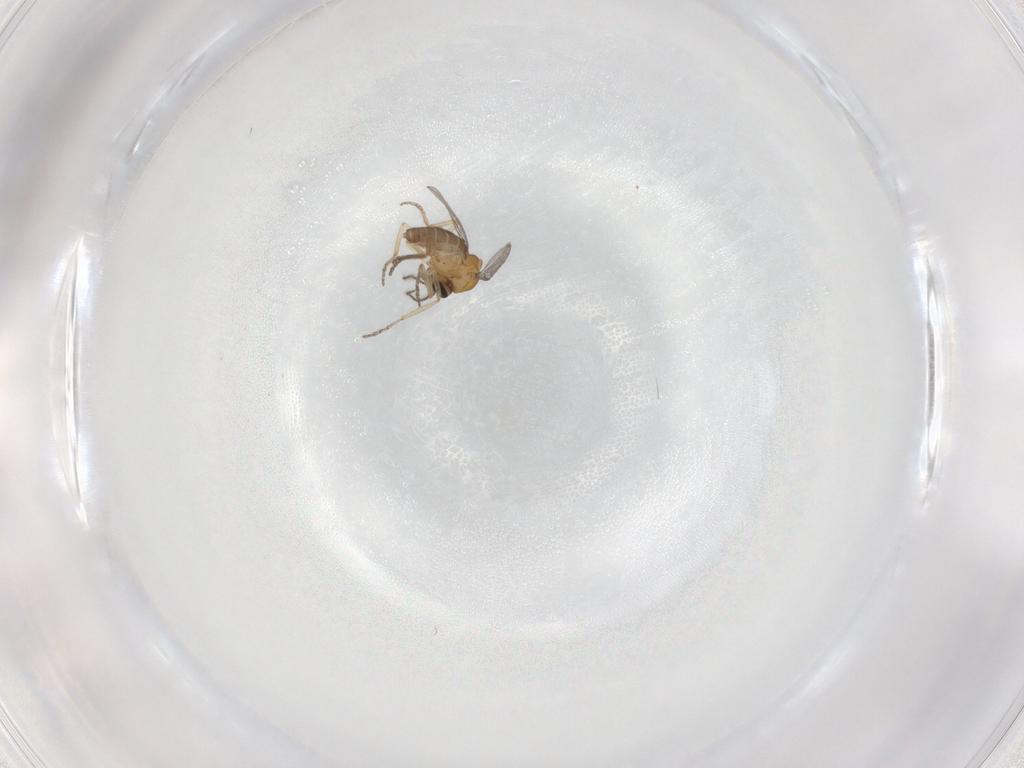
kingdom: Animalia
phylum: Arthropoda
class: Insecta
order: Diptera
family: Ceratopogonidae
